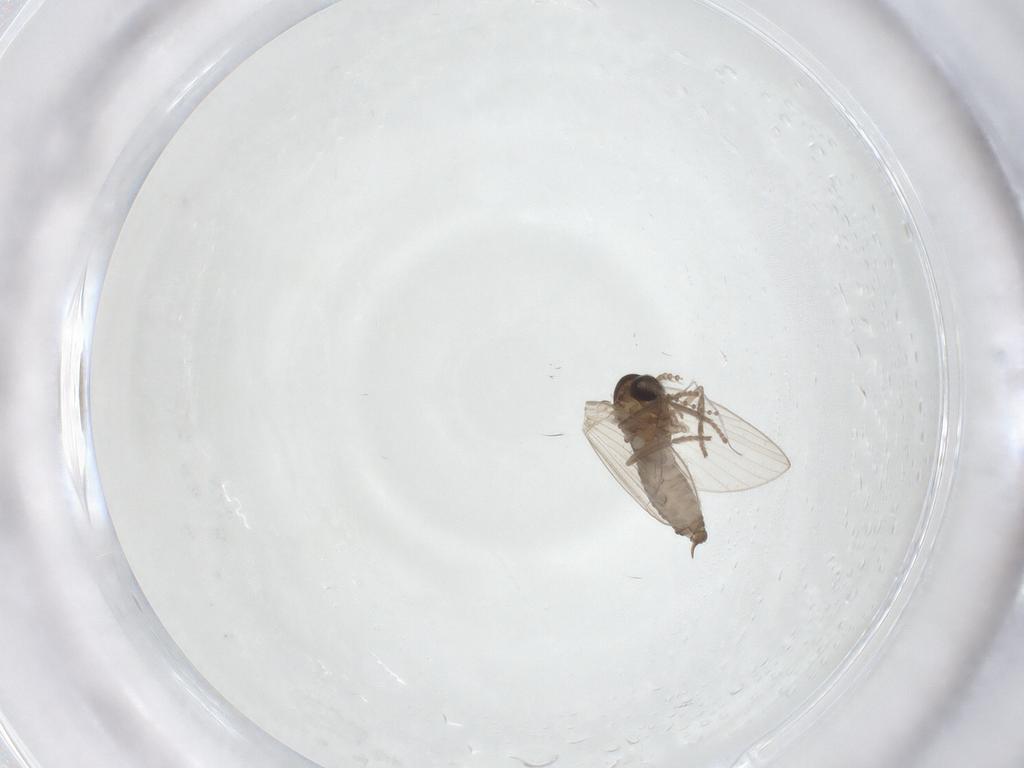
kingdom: Animalia
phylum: Arthropoda
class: Insecta
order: Diptera
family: Psychodidae
